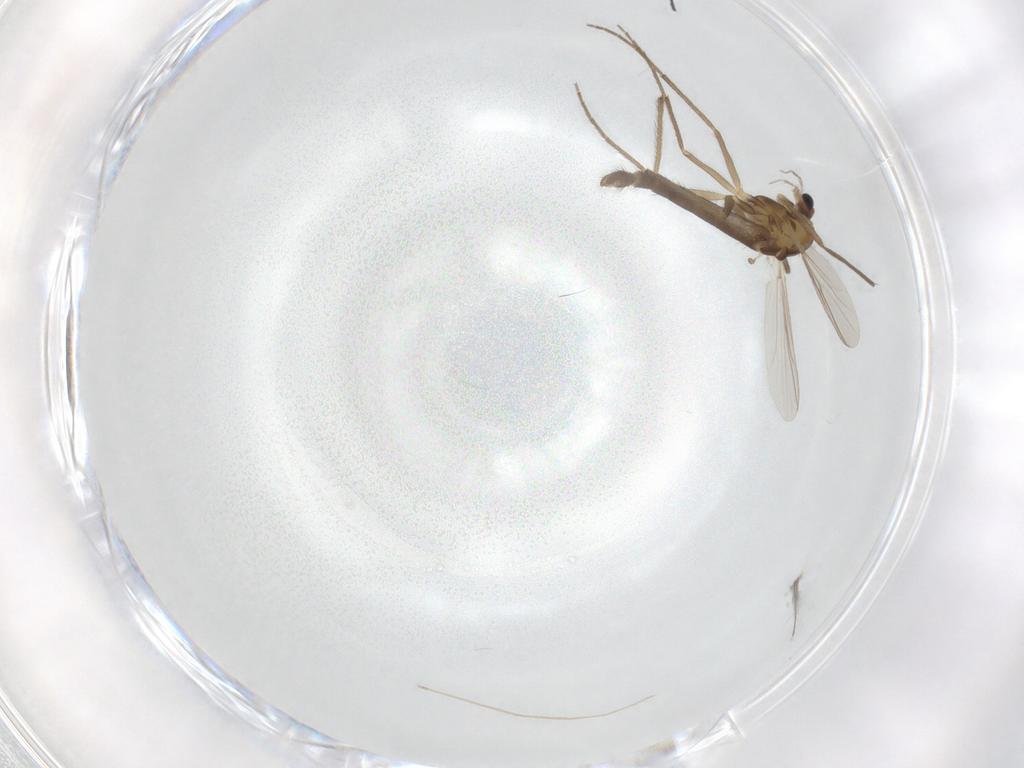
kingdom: Animalia
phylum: Arthropoda
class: Insecta
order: Diptera
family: Chironomidae
